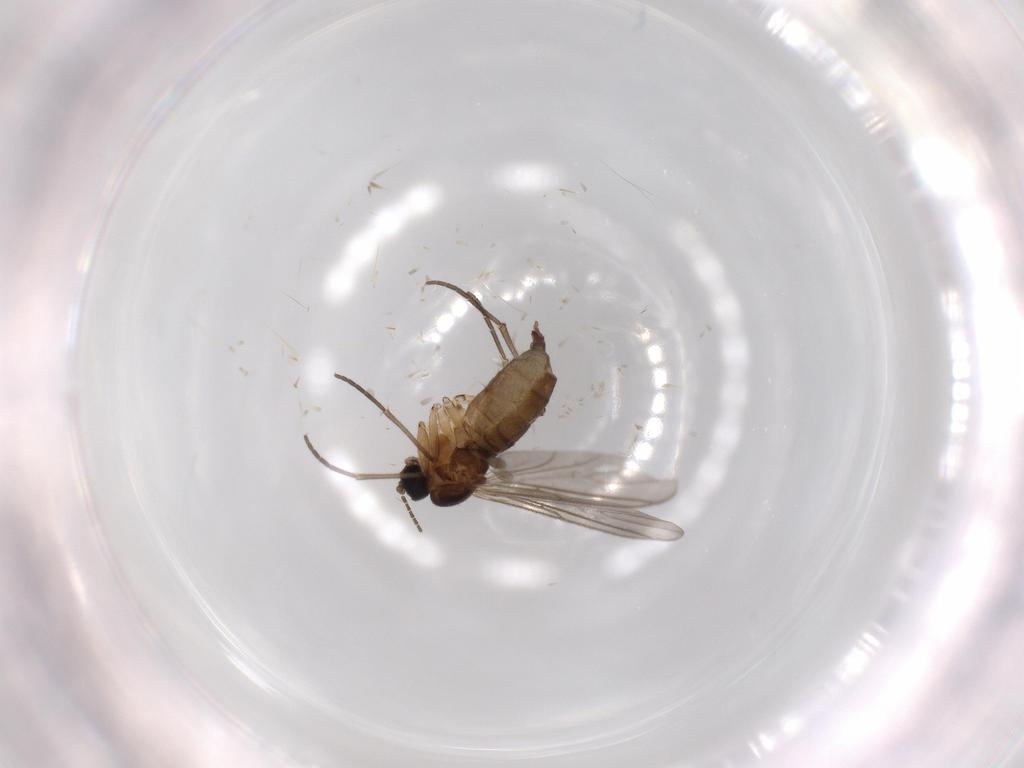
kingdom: Animalia
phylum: Arthropoda
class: Insecta
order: Diptera
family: Sciaridae
